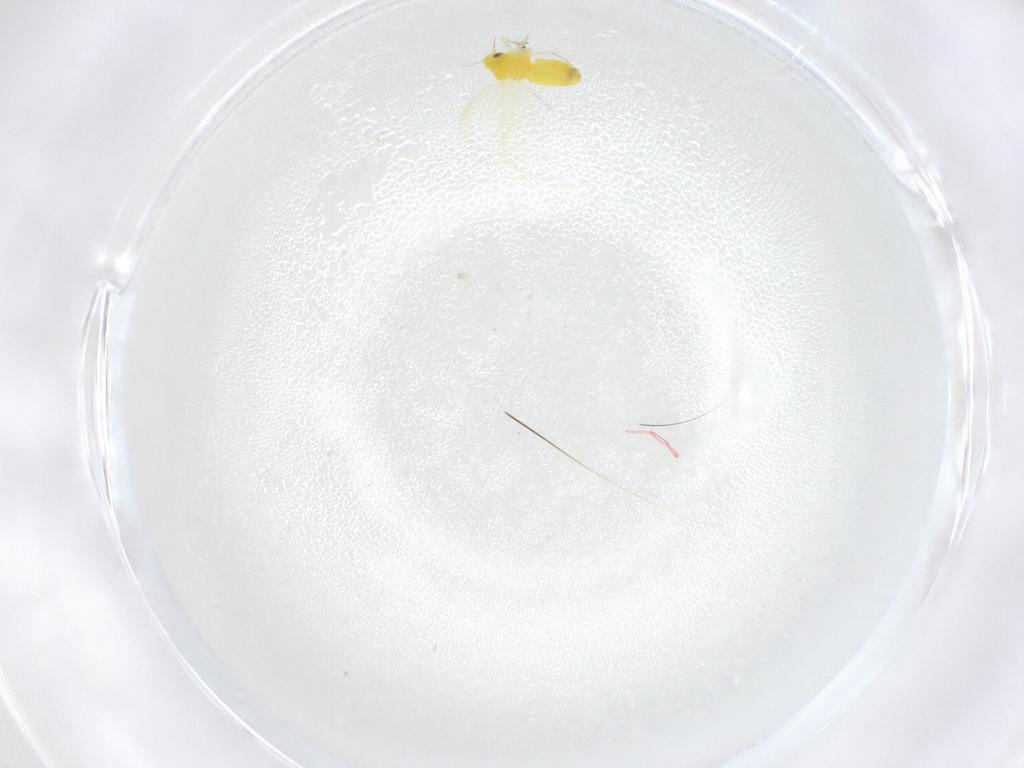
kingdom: Animalia
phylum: Arthropoda
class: Insecta
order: Hemiptera
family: Aleyrodidae
